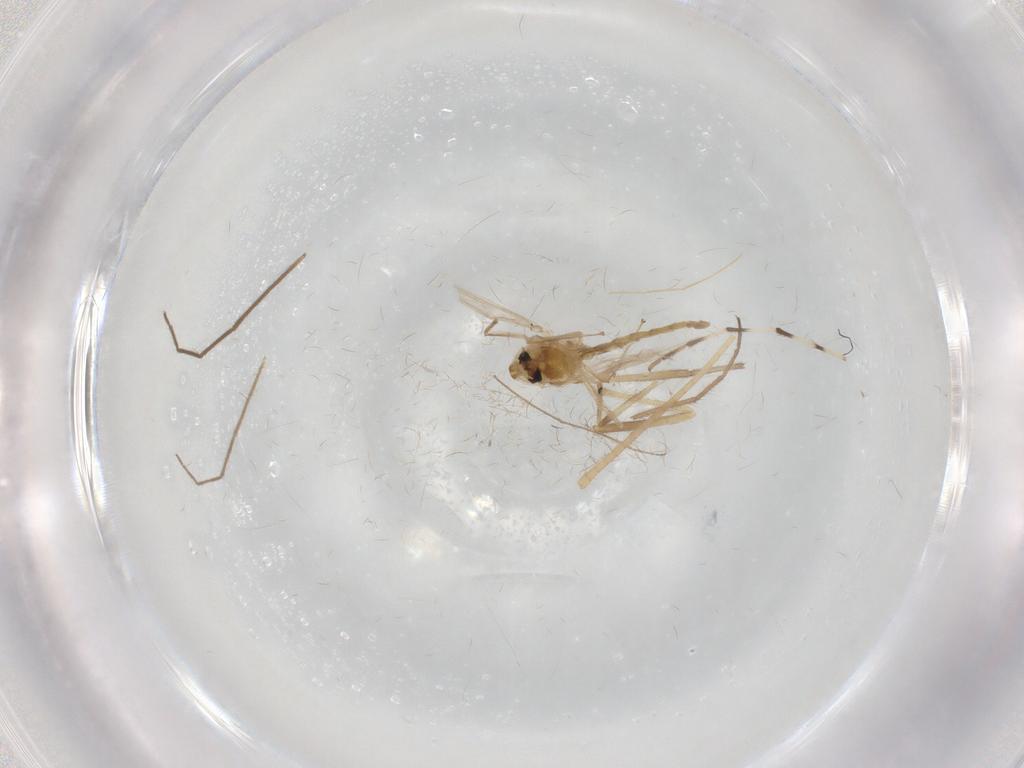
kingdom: Animalia
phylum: Arthropoda
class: Insecta
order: Diptera
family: Chironomidae
